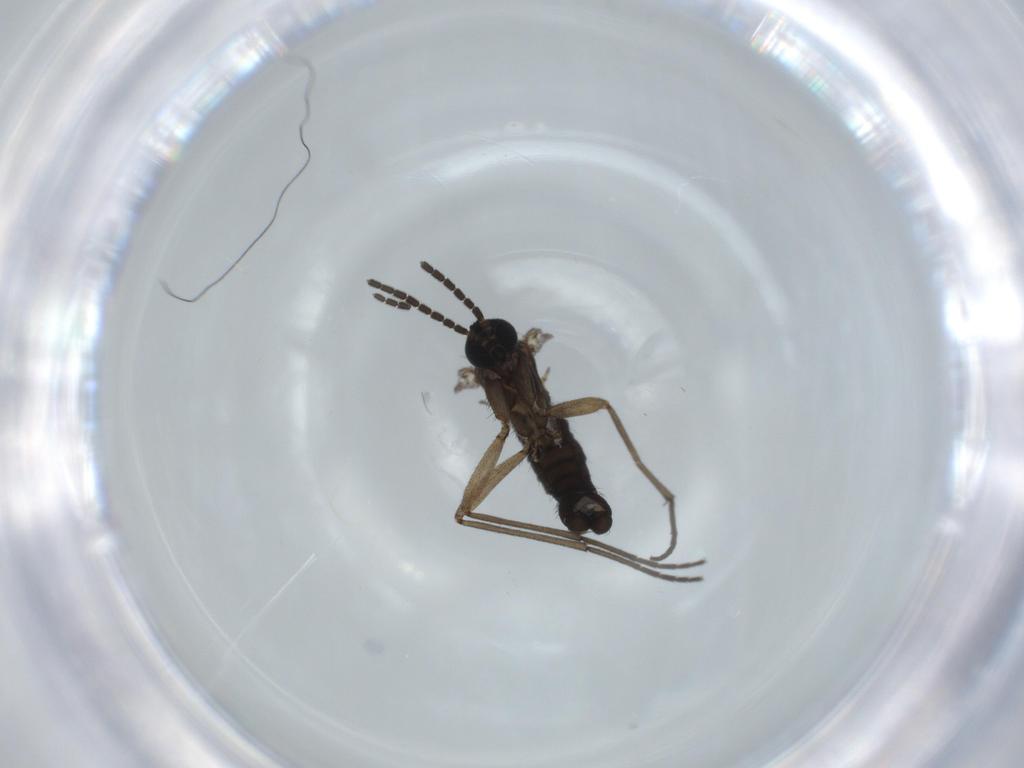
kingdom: Animalia
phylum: Arthropoda
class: Insecta
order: Diptera
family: Sciaridae
